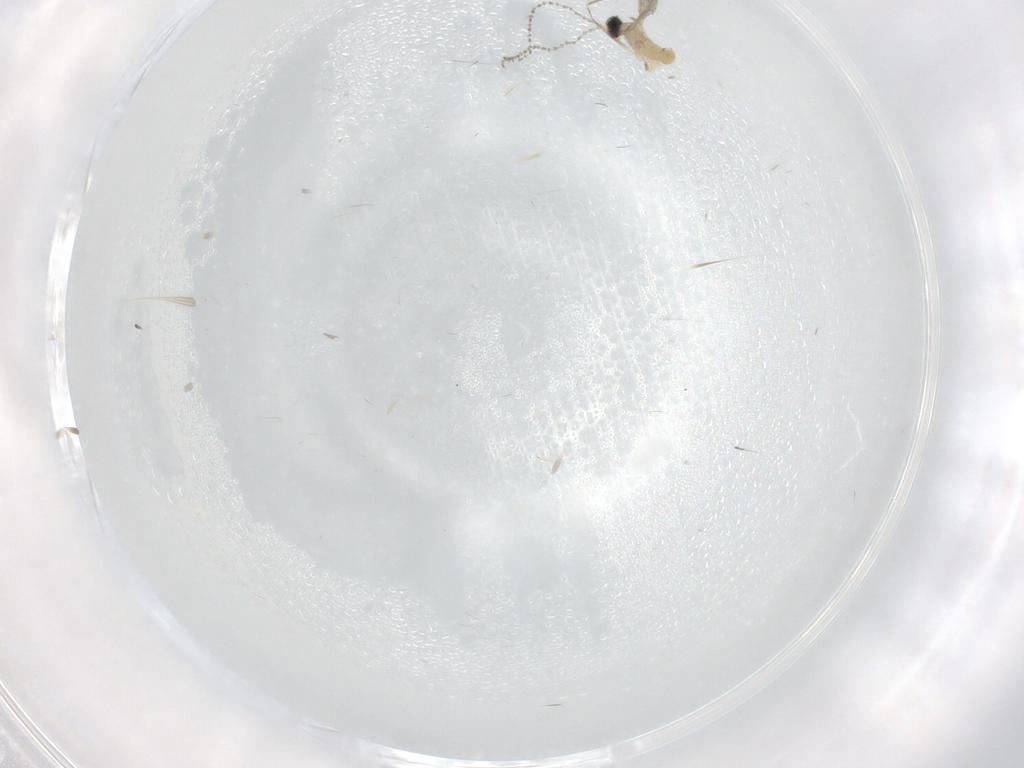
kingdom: Animalia
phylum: Arthropoda
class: Insecta
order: Diptera
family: Cecidomyiidae
